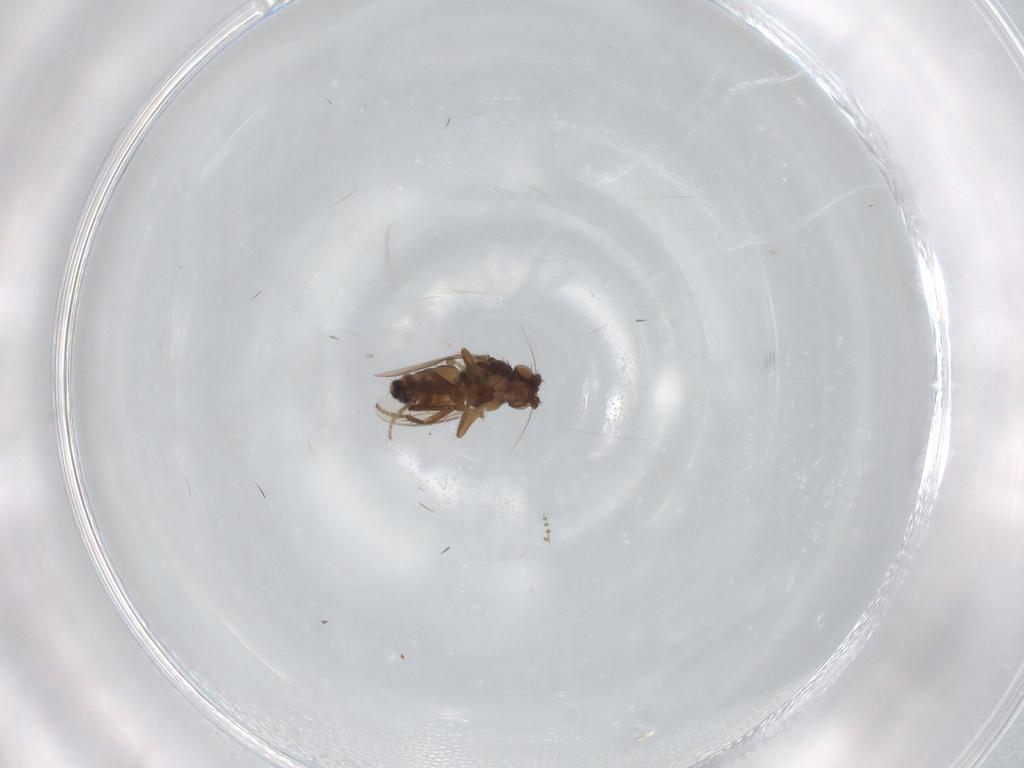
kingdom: Animalia
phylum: Arthropoda
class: Insecta
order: Diptera
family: Sphaeroceridae
